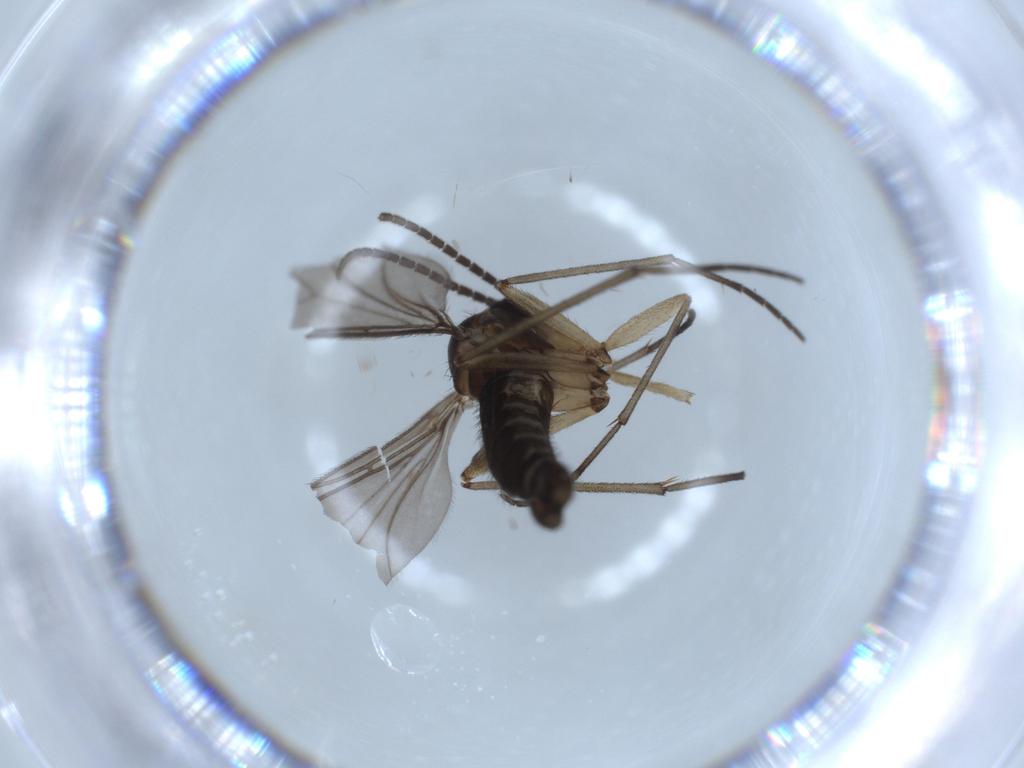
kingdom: Animalia
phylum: Arthropoda
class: Insecta
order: Diptera
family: Sciaridae
